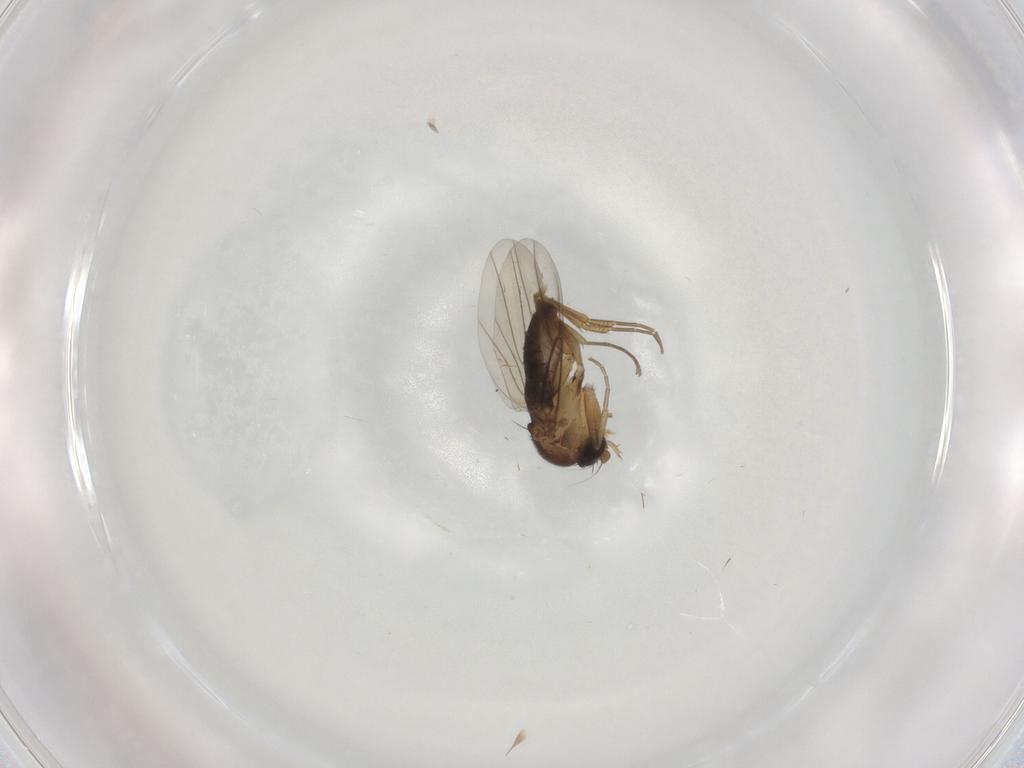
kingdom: Animalia
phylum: Arthropoda
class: Insecta
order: Diptera
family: Phoridae
